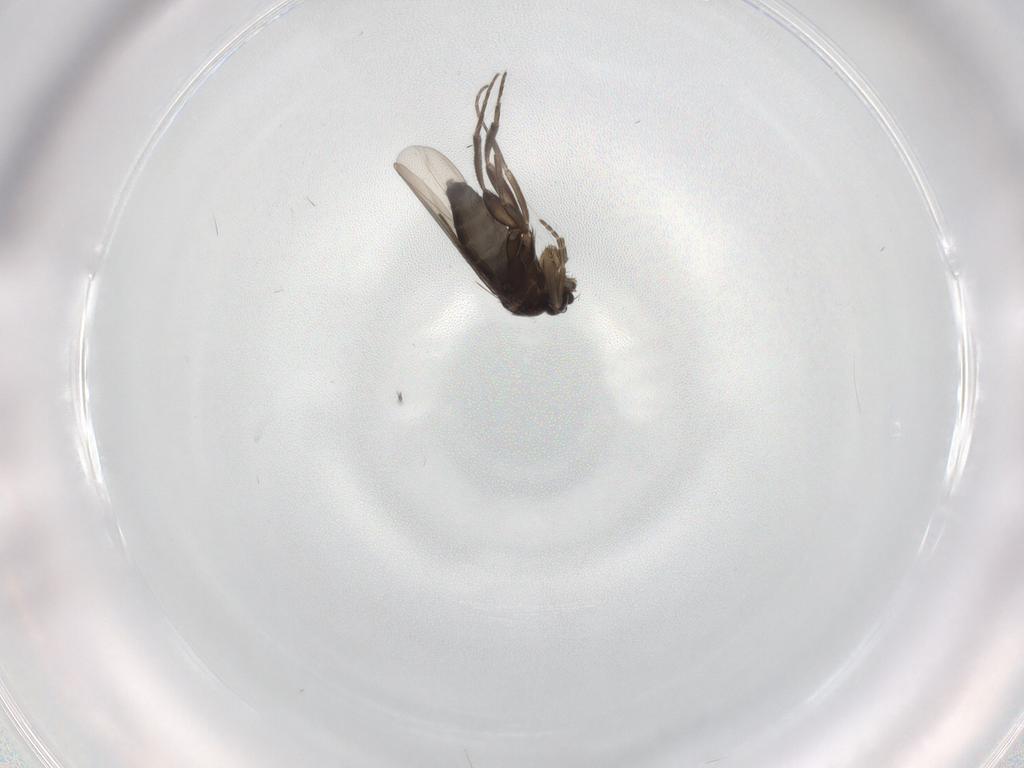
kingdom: Animalia
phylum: Arthropoda
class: Insecta
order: Diptera
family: Phoridae
